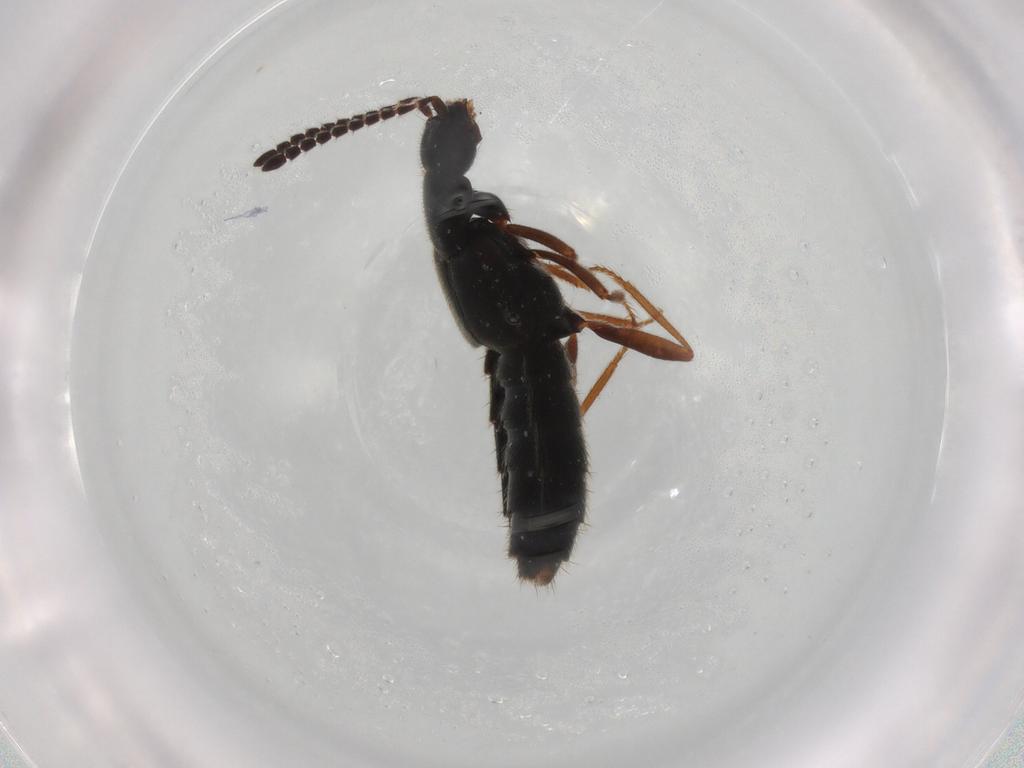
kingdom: Animalia
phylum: Arthropoda
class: Insecta
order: Coleoptera
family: Staphylinidae
